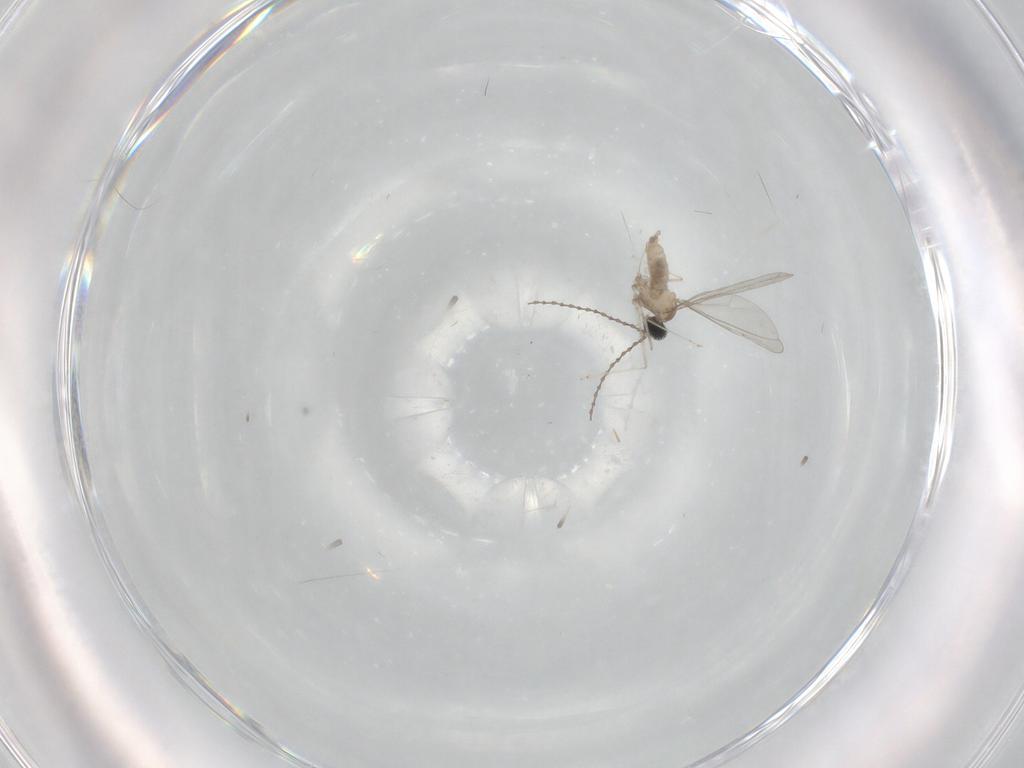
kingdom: Animalia
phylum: Arthropoda
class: Insecta
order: Diptera
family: Cecidomyiidae
